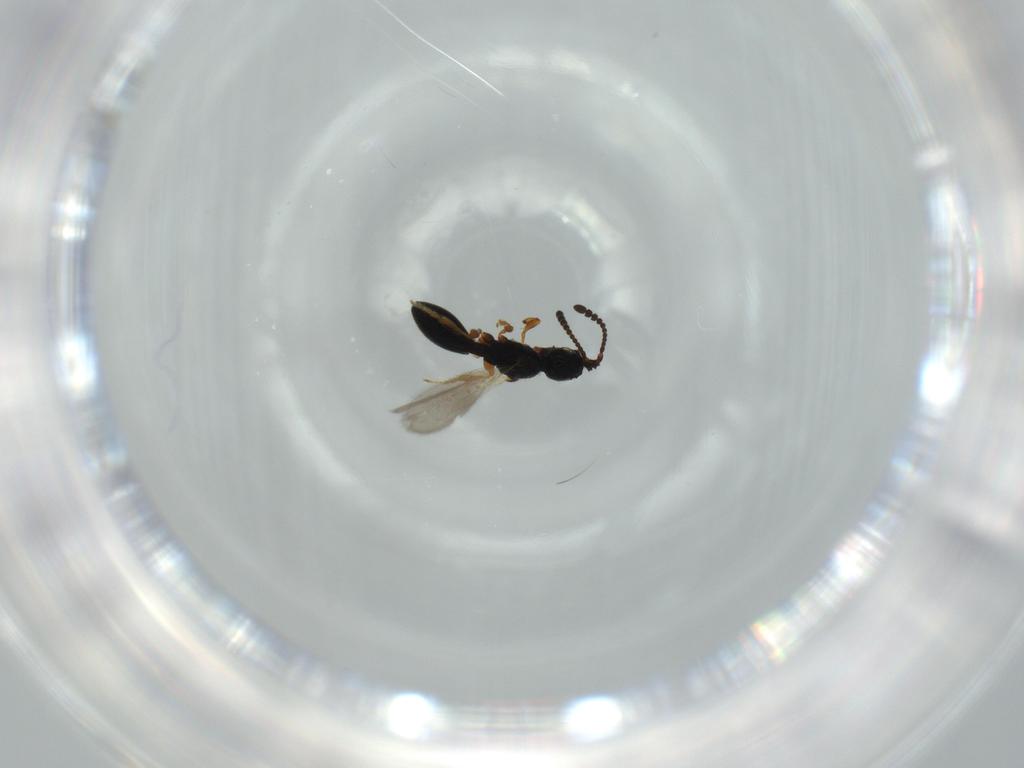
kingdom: Animalia
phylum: Arthropoda
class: Insecta
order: Hymenoptera
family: Diapriidae
